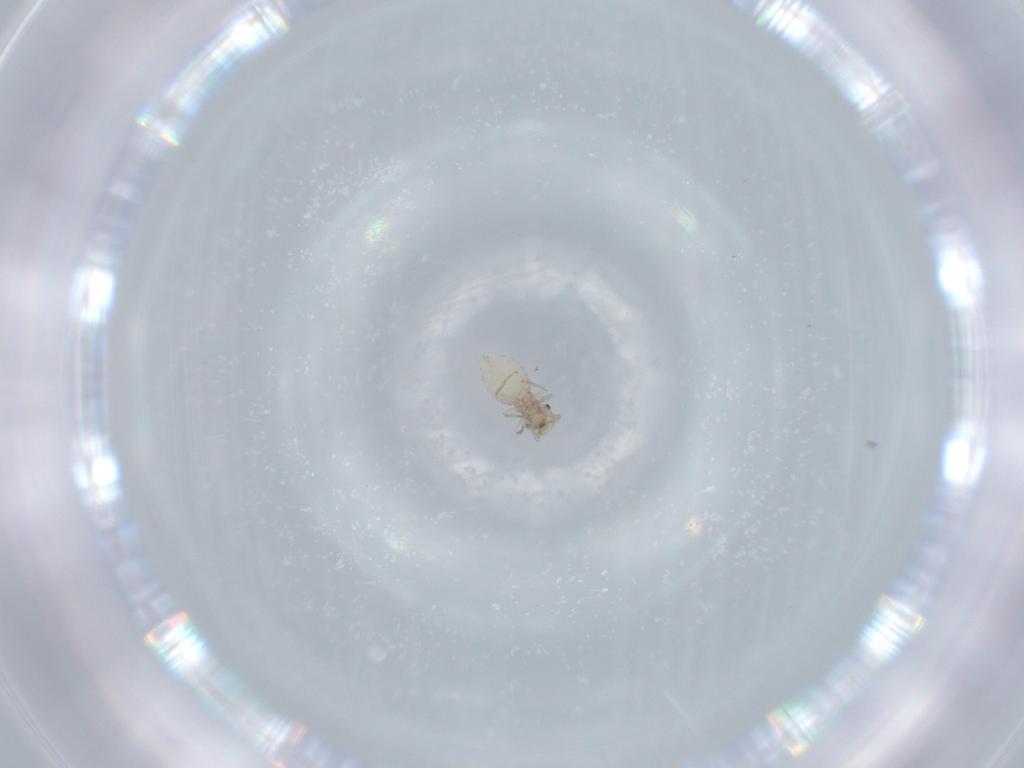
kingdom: Animalia
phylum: Arthropoda
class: Insecta
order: Psocodea
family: Caeciliusidae
